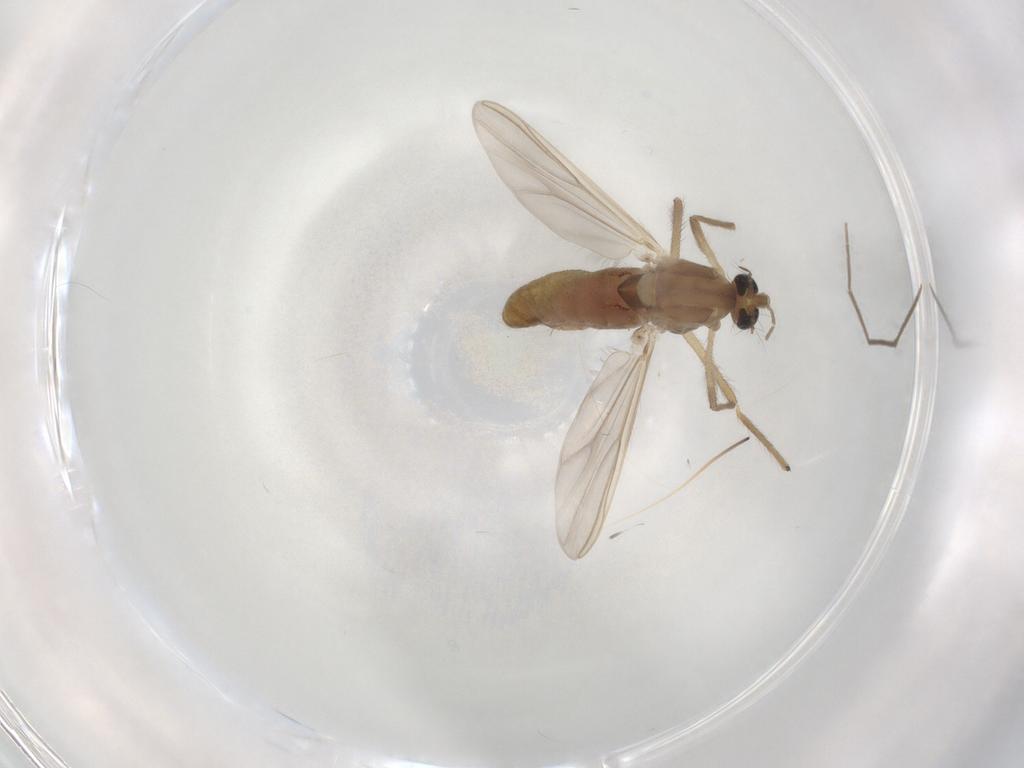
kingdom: Animalia
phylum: Arthropoda
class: Insecta
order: Diptera
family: Chironomidae
